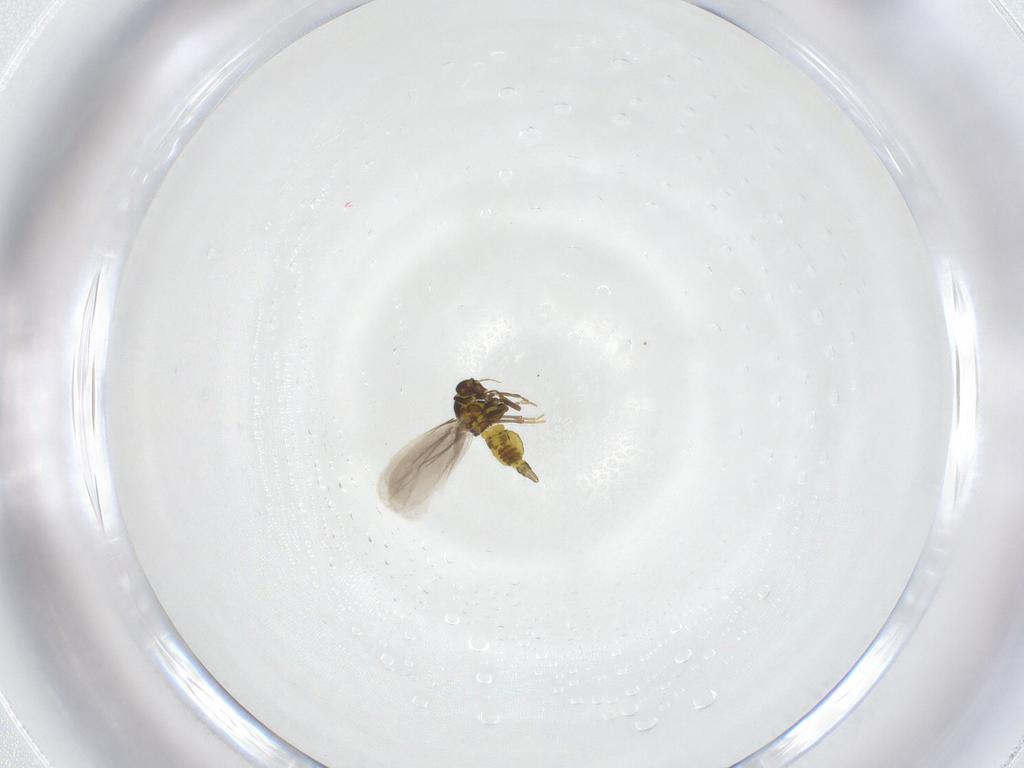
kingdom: Animalia
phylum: Arthropoda
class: Insecta
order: Hemiptera
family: Aleyrodidae
